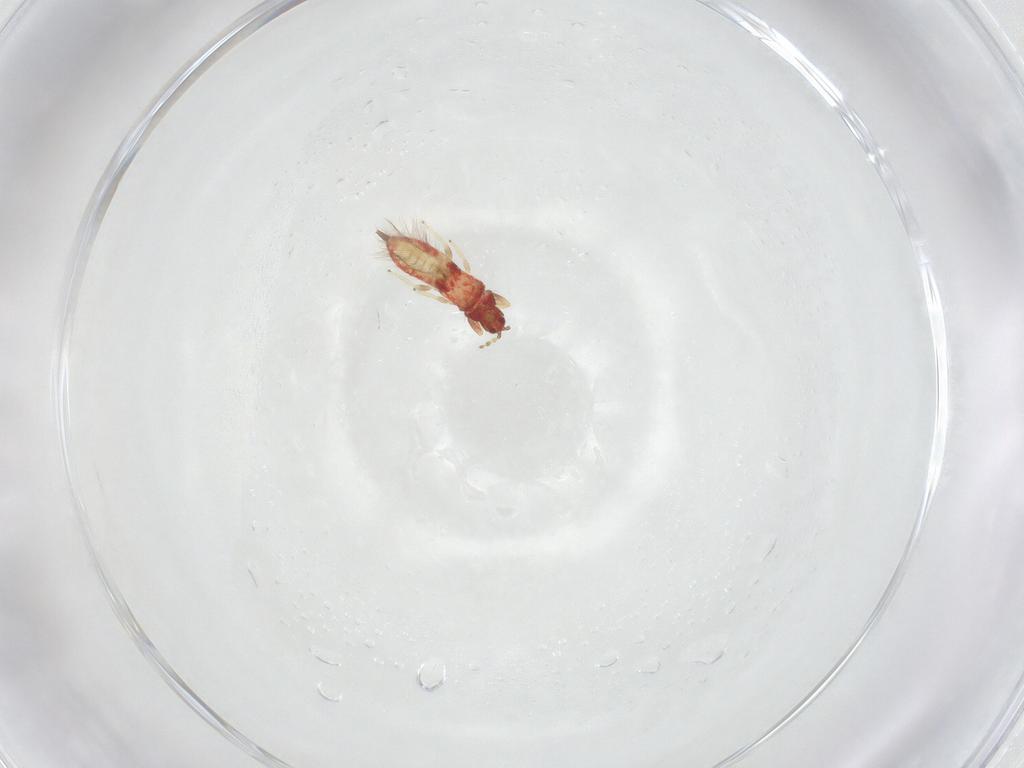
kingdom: Animalia
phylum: Arthropoda
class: Insecta
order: Thysanoptera
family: Phlaeothripidae
